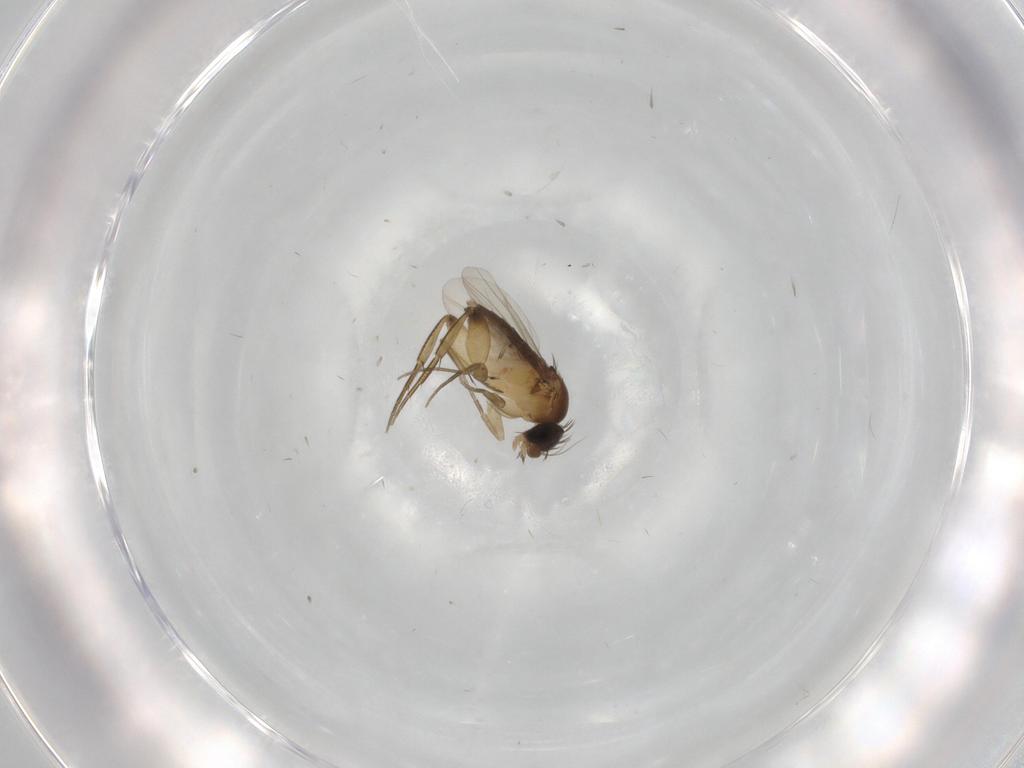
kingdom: Animalia
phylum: Arthropoda
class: Insecta
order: Diptera
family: Phoridae
